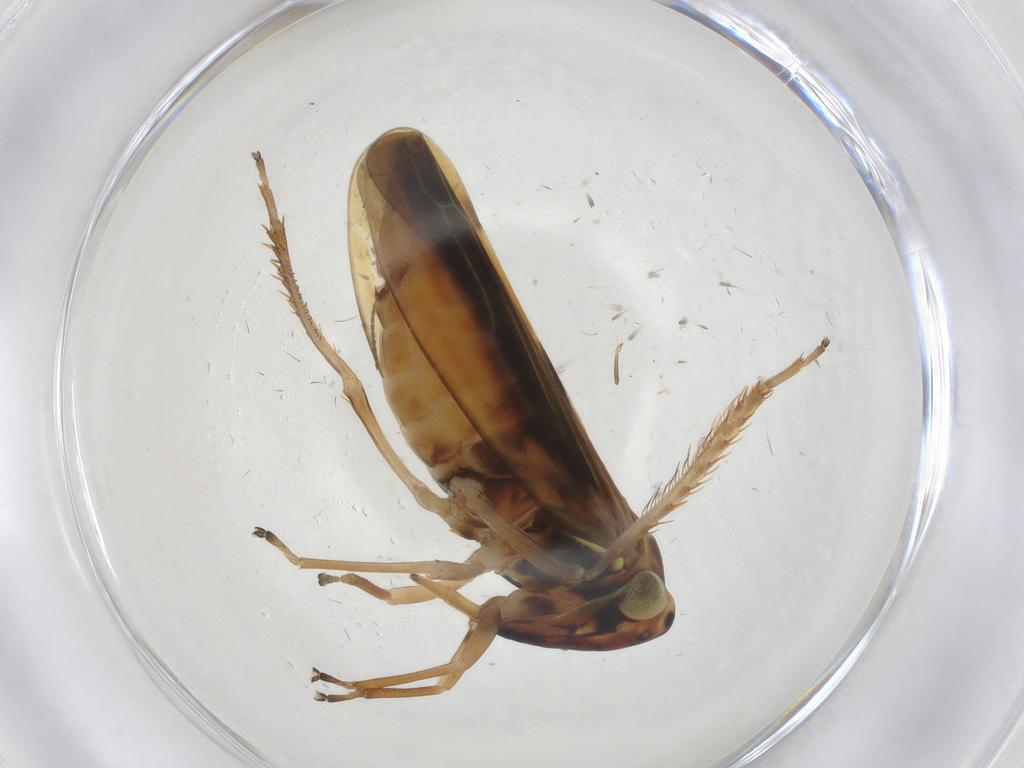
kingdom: Animalia
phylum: Arthropoda
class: Insecta
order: Hemiptera
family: Cicadellidae
